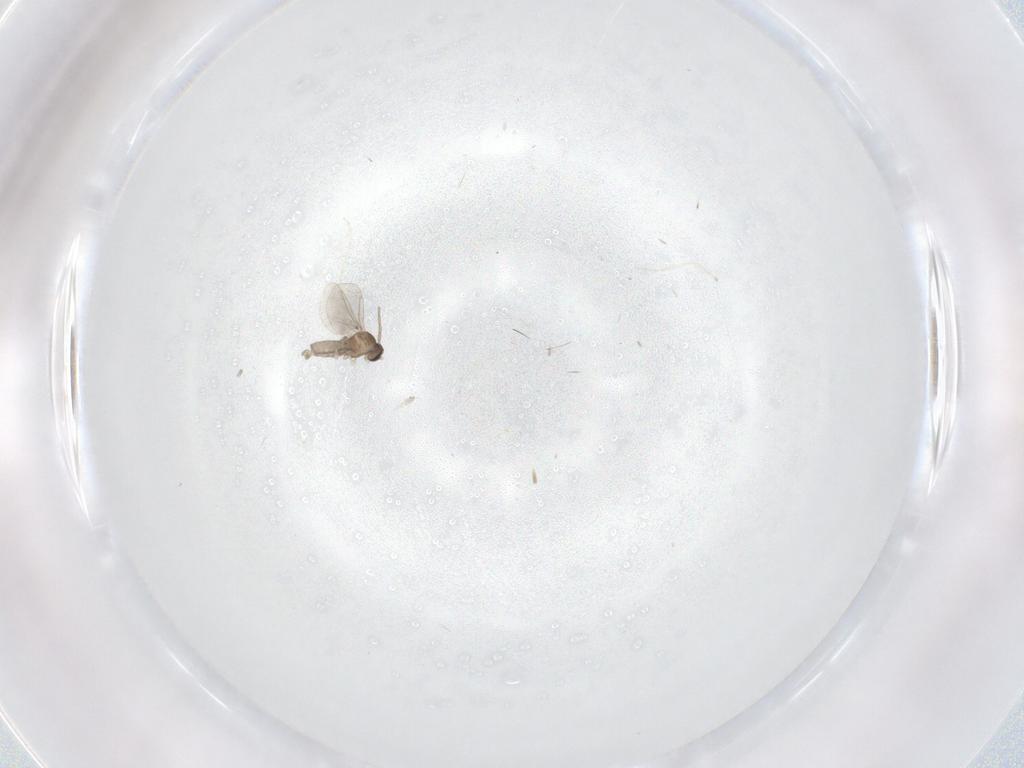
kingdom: Animalia
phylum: Arthropoda
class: Insecta
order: Diptera
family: Cecidomyiidae
